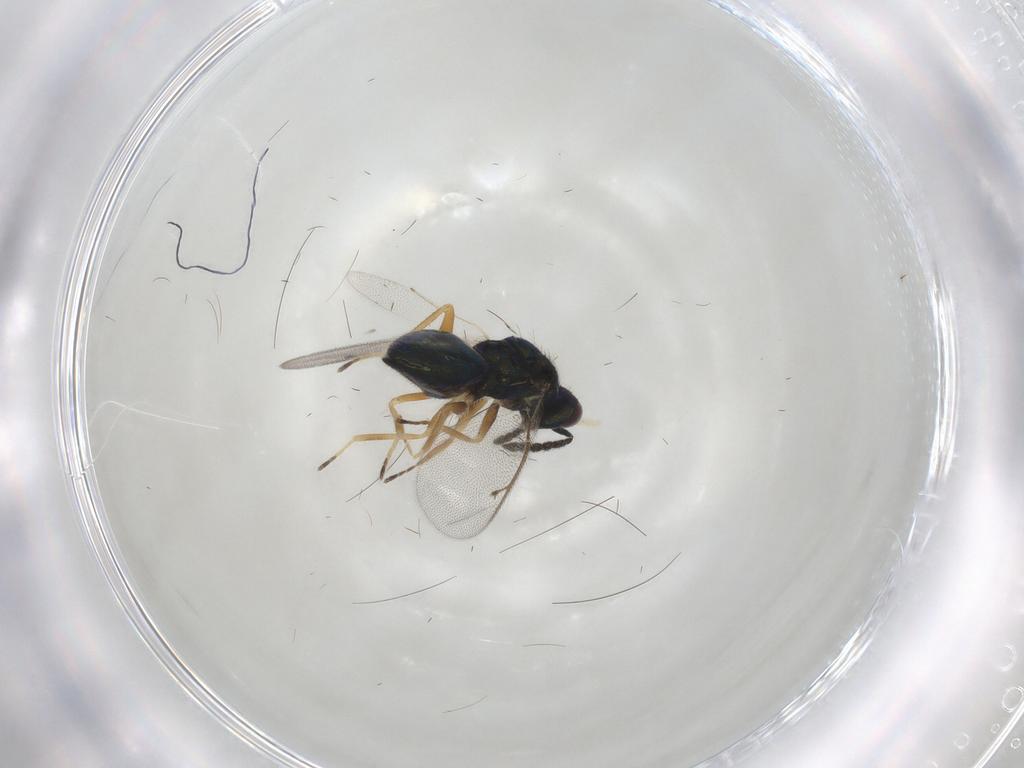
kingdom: Animalia
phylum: Arthropoda
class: Insecta
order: Hymenoptera
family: Eulophidae
